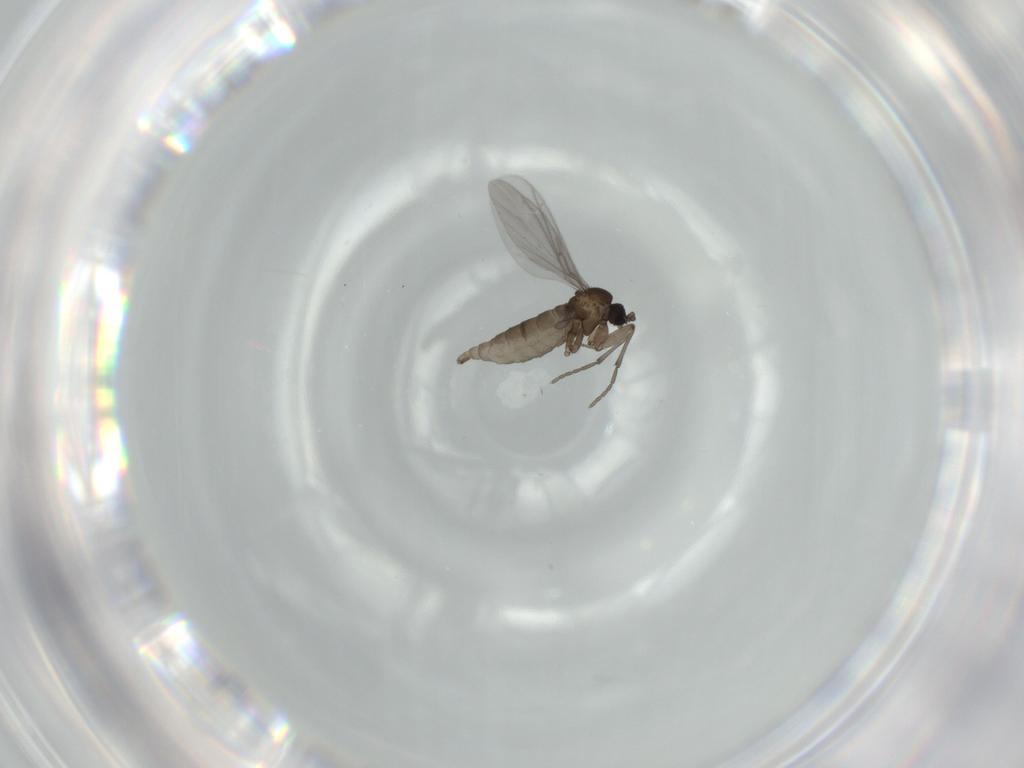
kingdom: Animalia
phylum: Arthropoda
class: Insecta
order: Diptera
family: Sciaridae
